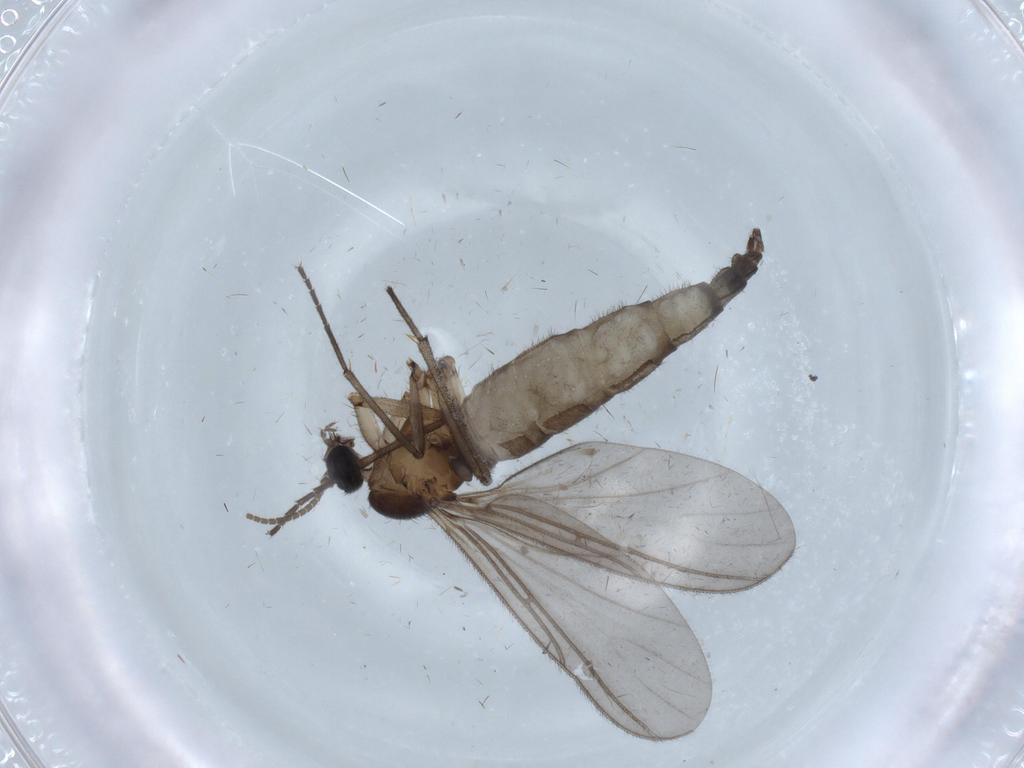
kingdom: Animalia
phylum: Arthropoda
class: Insecta
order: Diptera
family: Cecidomyiidae
